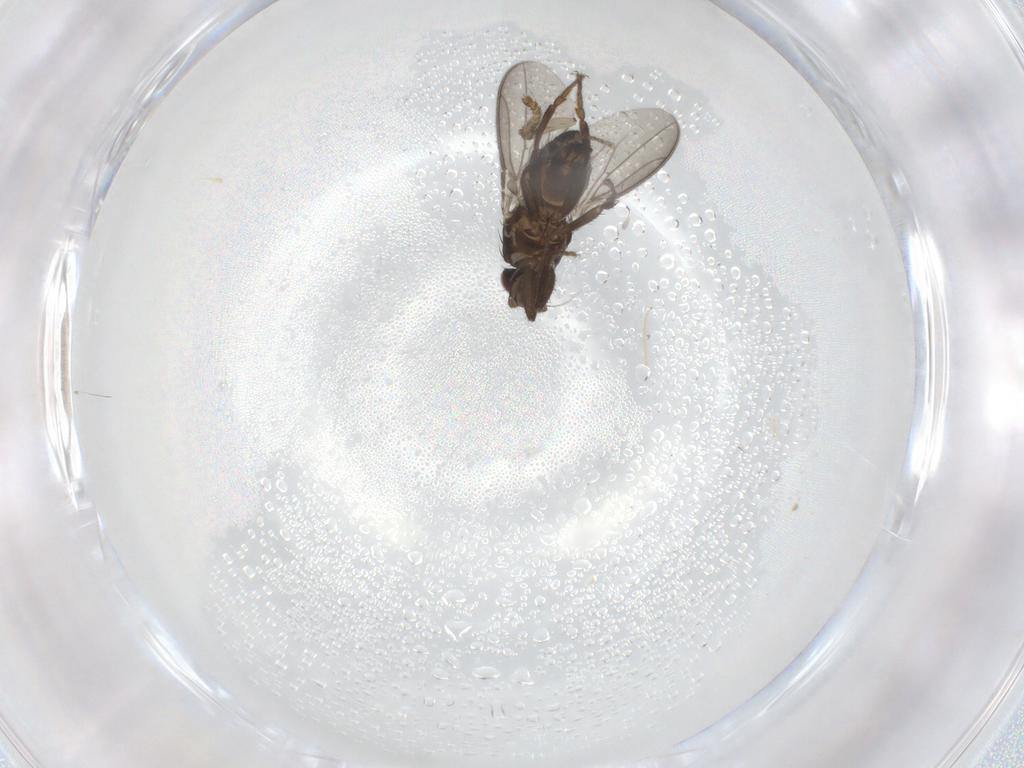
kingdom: Animalia
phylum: Arthropoda
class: Insecta
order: Diptera
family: Sphaeroceridae
